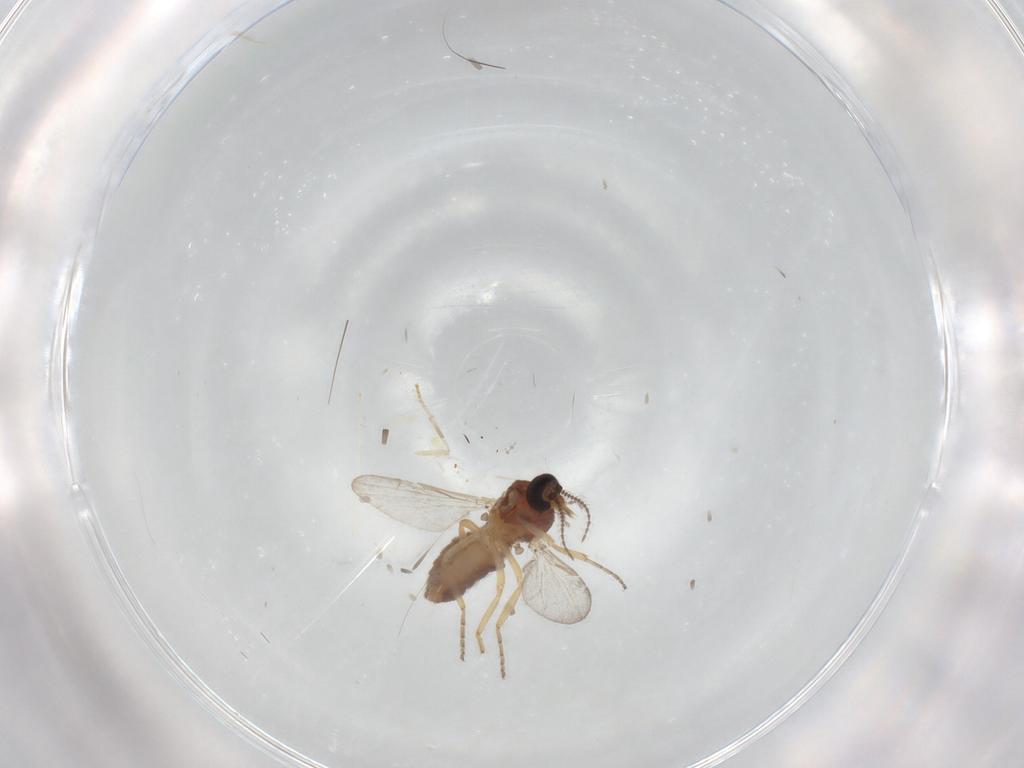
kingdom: Animalia
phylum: Arthropoda
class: Insecta
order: Diptera
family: Ceratopogonidae
